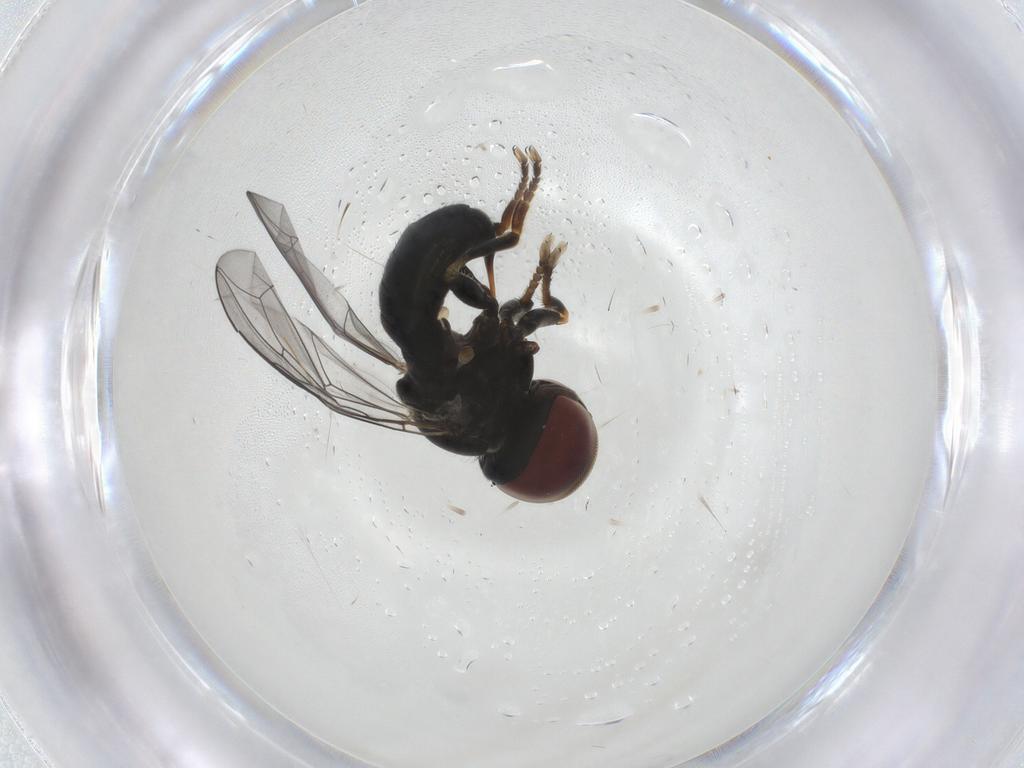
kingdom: Animalia
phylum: Arthropoda
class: Insecta
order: Diptera
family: Pipunculidae
